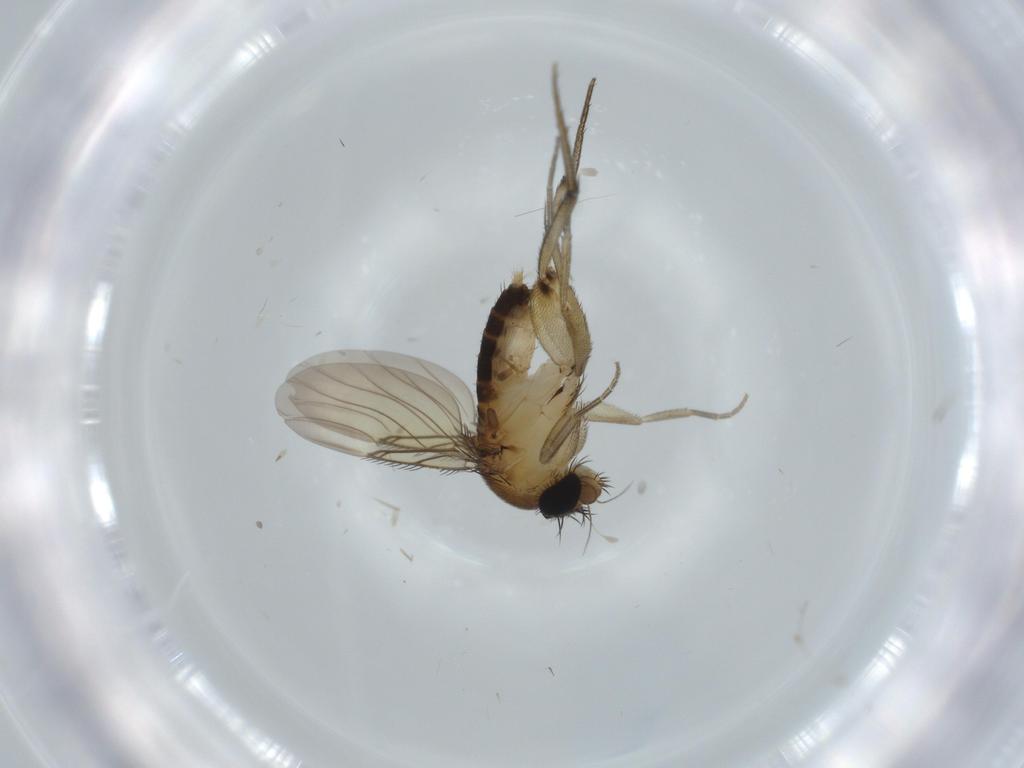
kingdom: Animalia
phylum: Arthropoda
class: Insecta
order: Diptera
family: Phoridae
